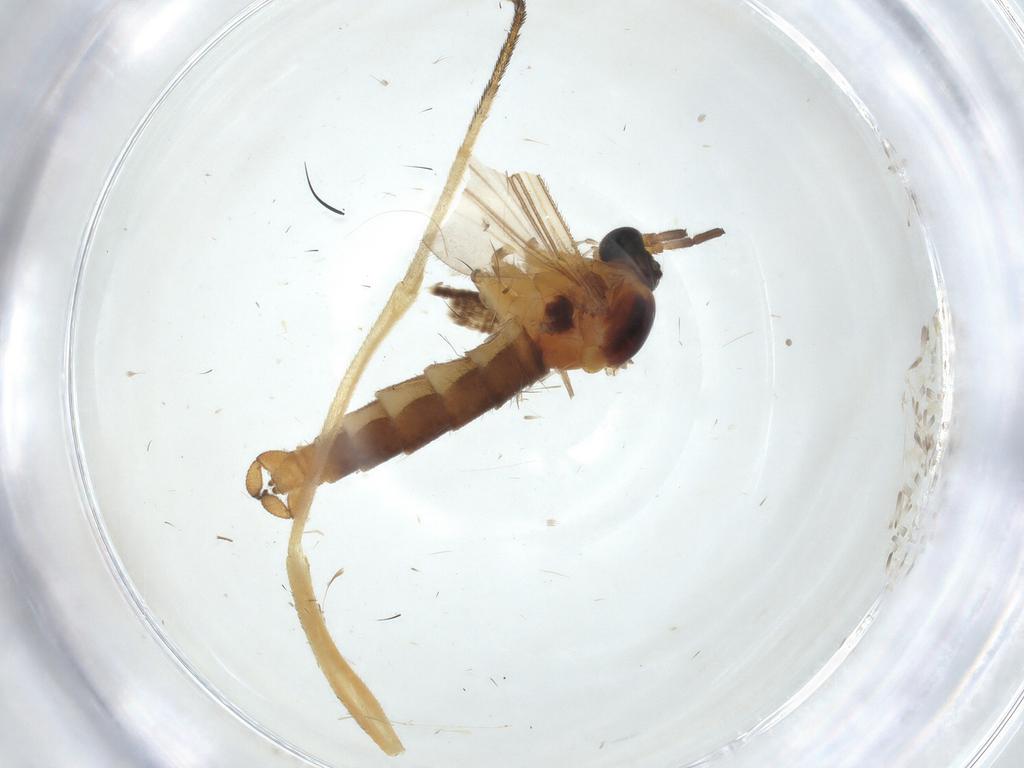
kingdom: Animalia
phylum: Arthropoda
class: Insecta
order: Diptera
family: Sciaridae
